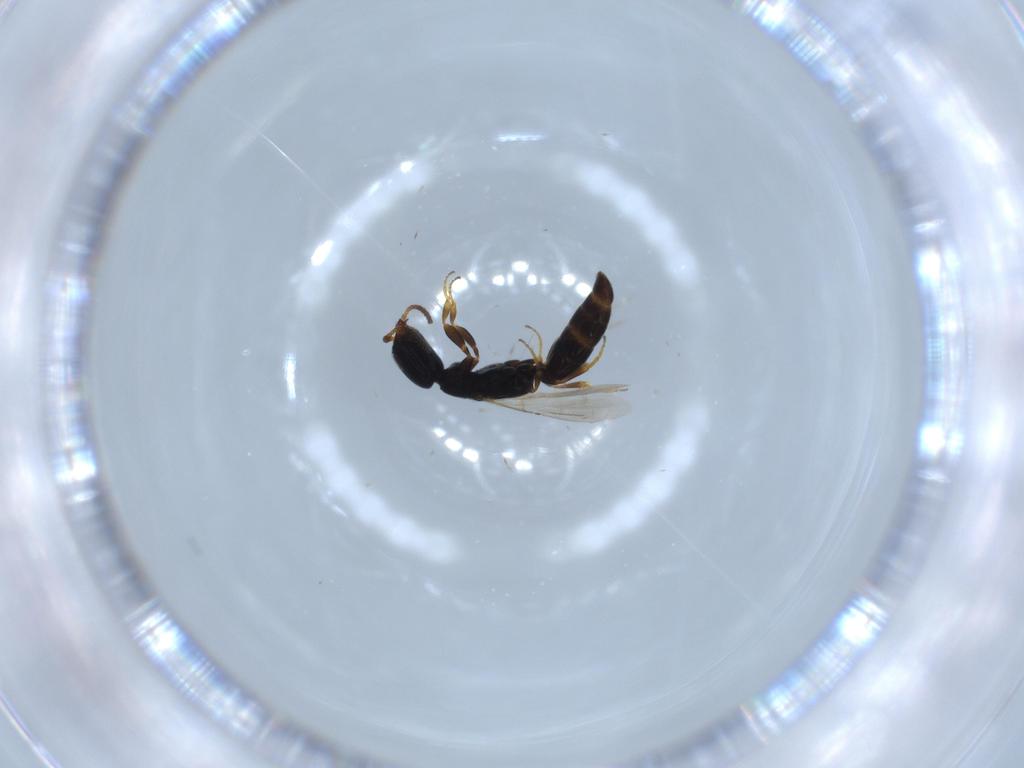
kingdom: Animalia
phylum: Arthropoda
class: Insecta
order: Hymenoptera
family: Bethylidae
